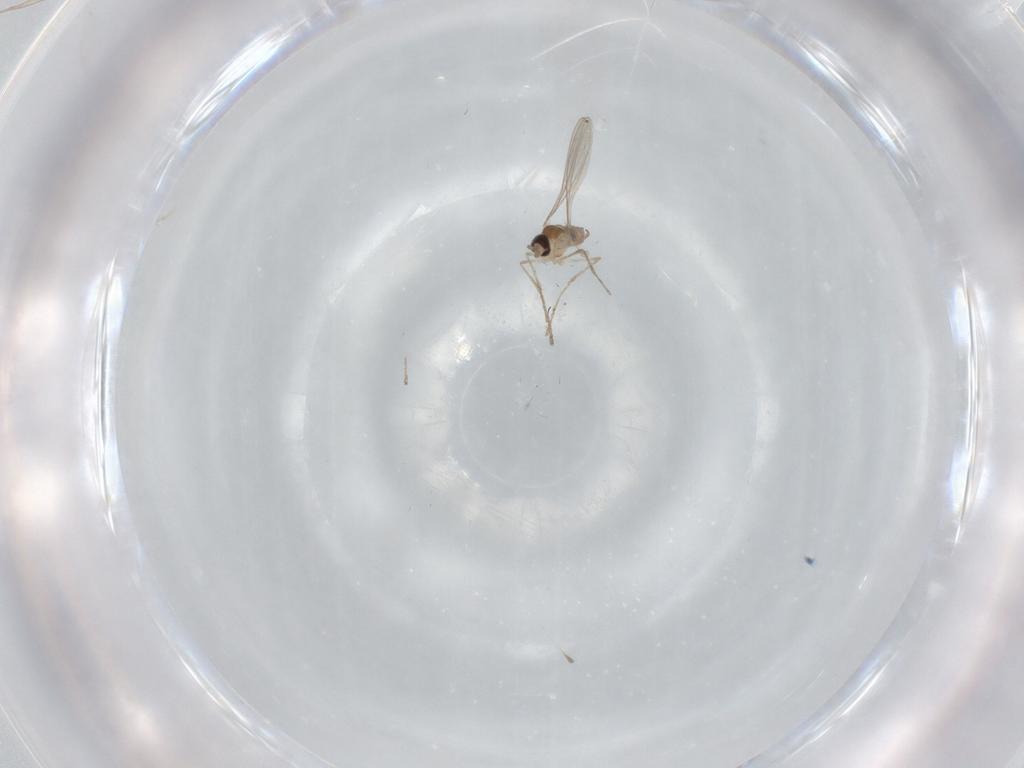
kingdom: Animalia
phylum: Arthropoda
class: Insecta
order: Diptera
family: Cecidomyiidae
